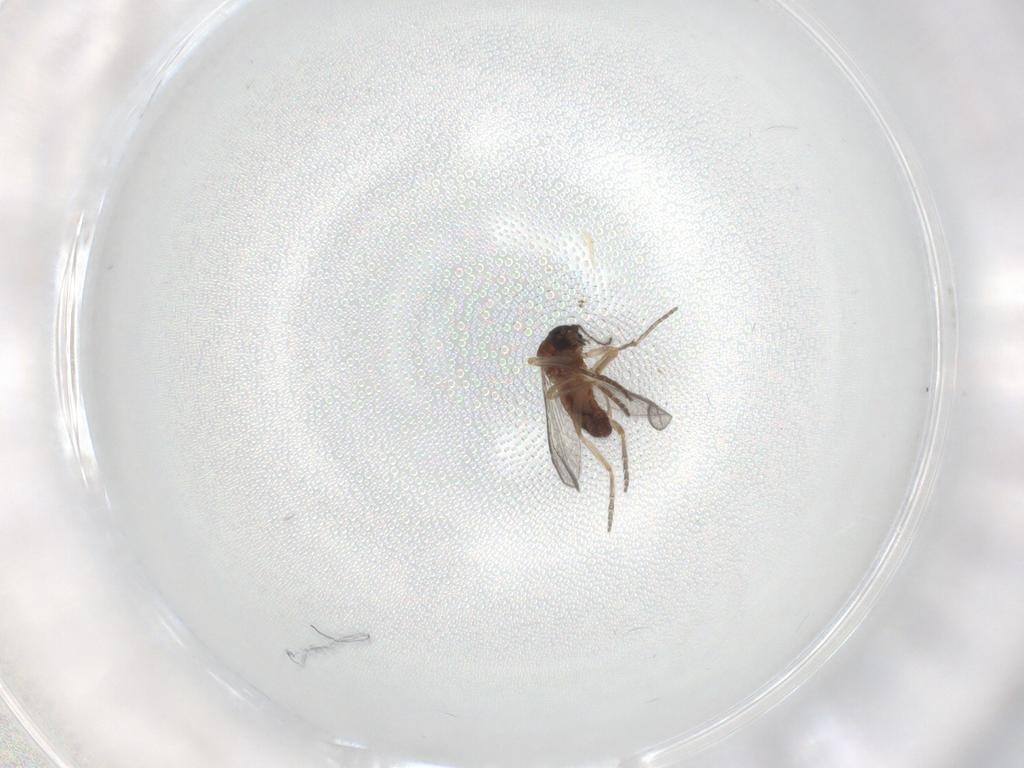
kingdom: Animalia
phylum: Arthropoda
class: Insecta
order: Diptera
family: Ceratopogonidae
